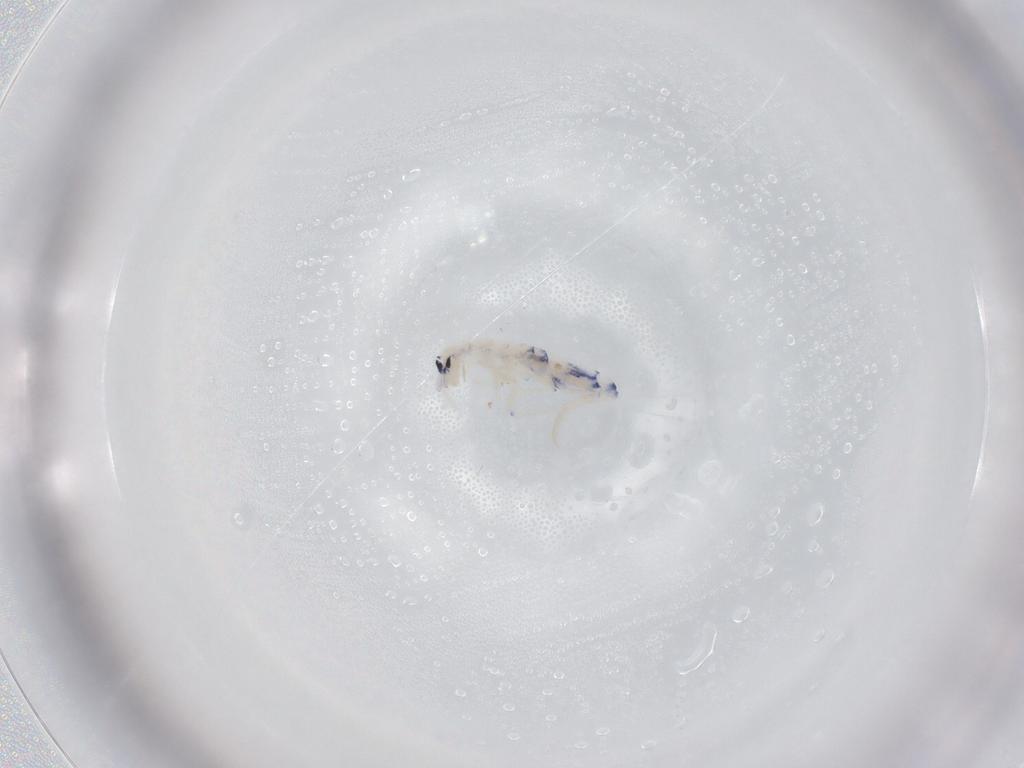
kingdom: Animalia
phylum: Arthropoda
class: Collembola
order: Entomobryomorpha
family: Entomobryidae
